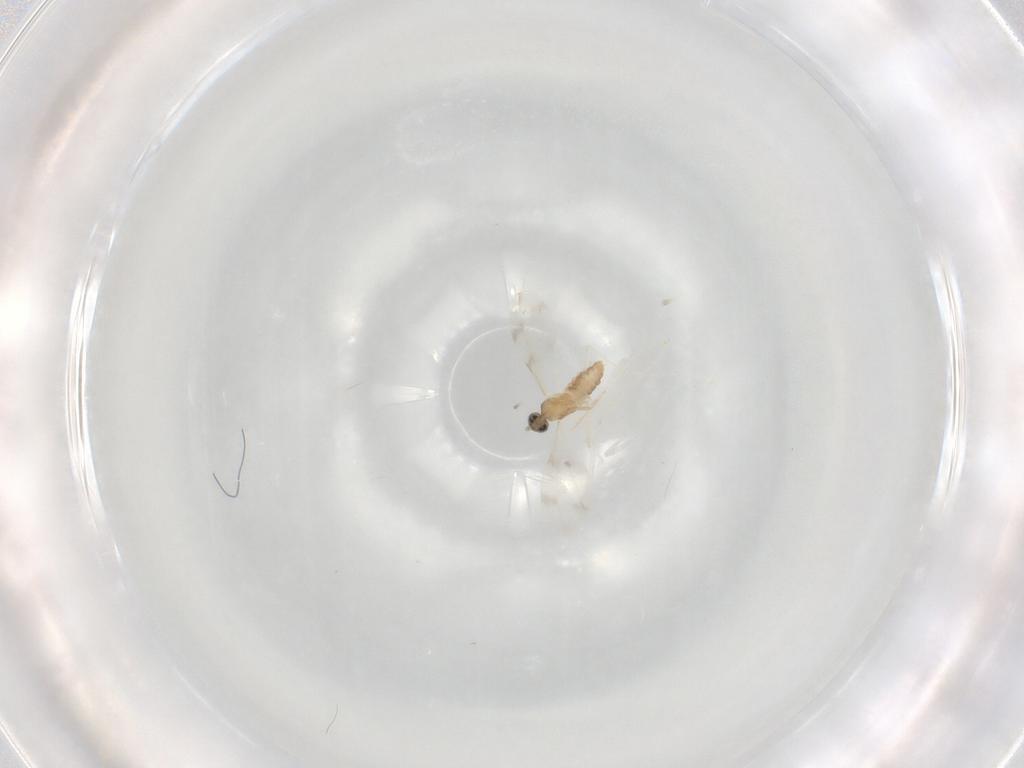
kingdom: Animalia
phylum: Arthropoda
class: Insecta
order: Diptera
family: Cecidomyiidae
